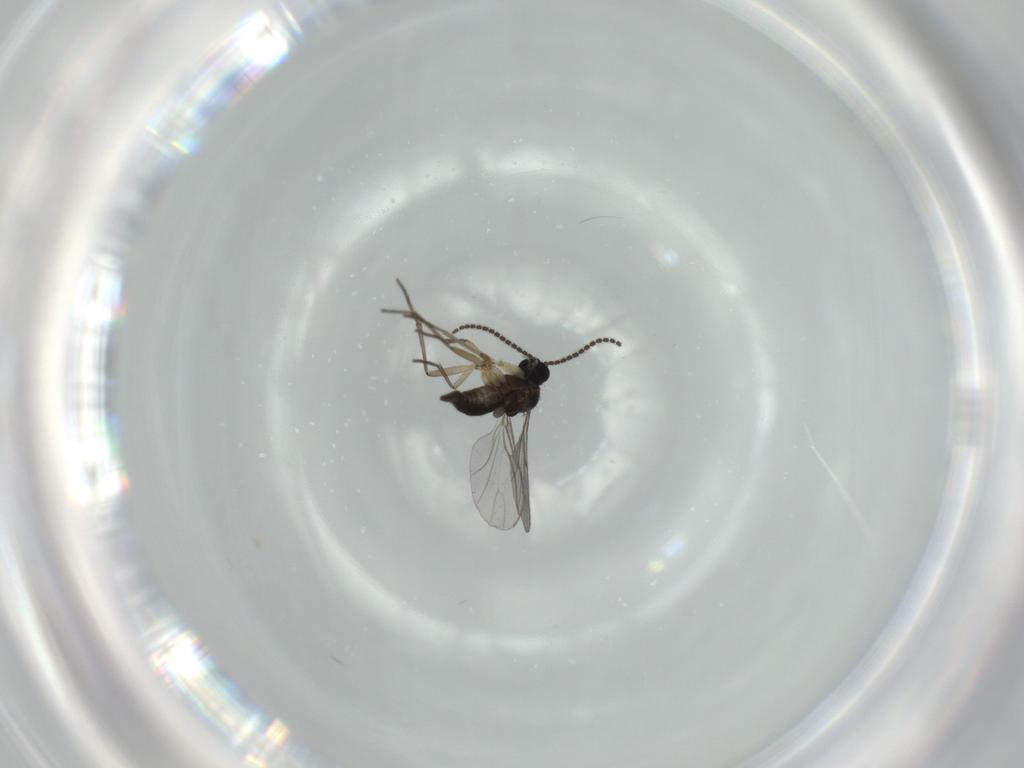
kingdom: Animalia
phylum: Arthropoda
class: Insecta
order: Diptera
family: Sciaridae
